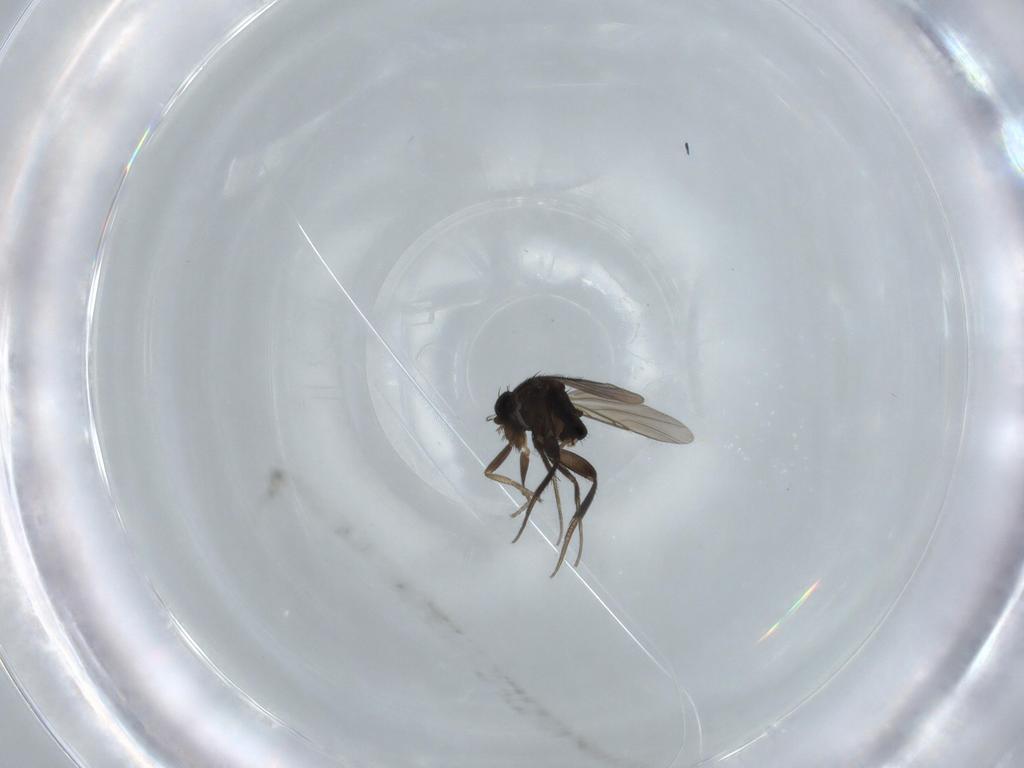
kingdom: Animalia
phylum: Arthropoda
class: Insecta
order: Diptera
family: Phoridae
